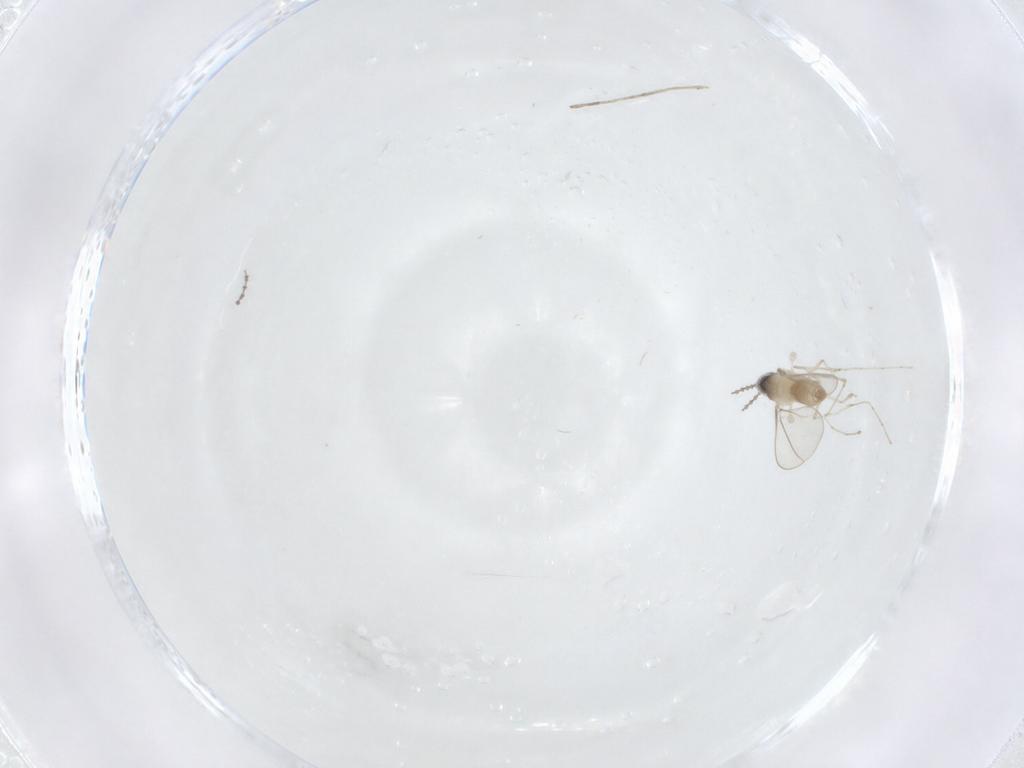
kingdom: Animalia
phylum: Arthropoda
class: Insecta
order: Diptera
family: Cecidomyiidae
